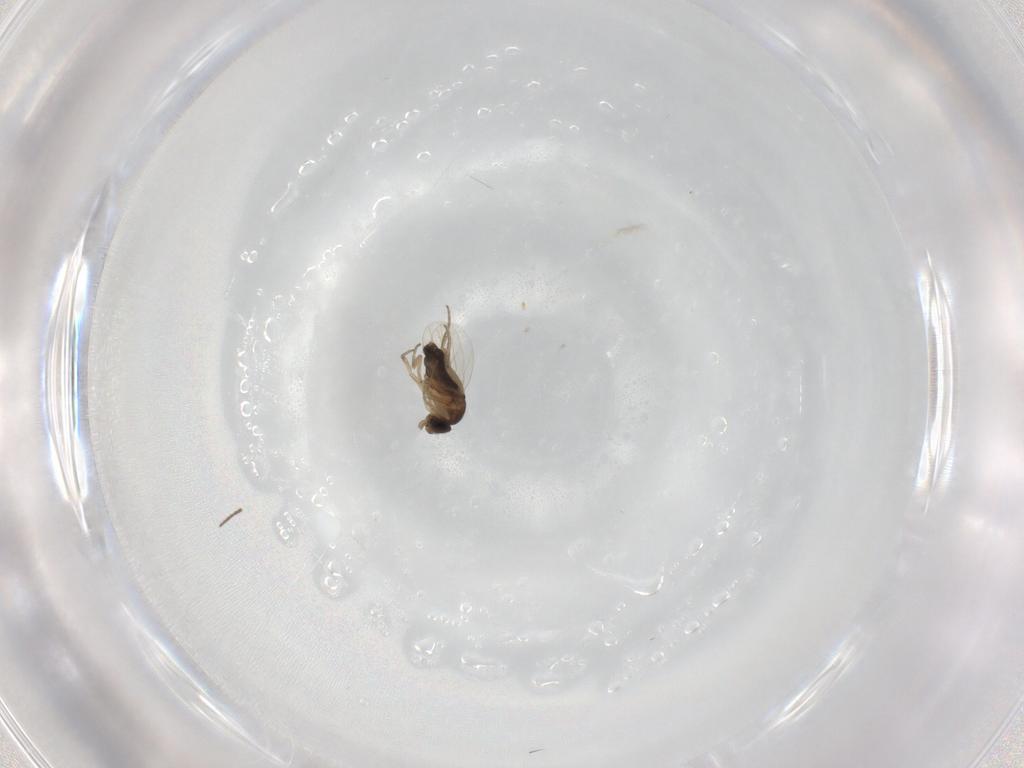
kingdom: Animalia
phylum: Arthropoda
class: Insecta
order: Diptera
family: Phoridae
